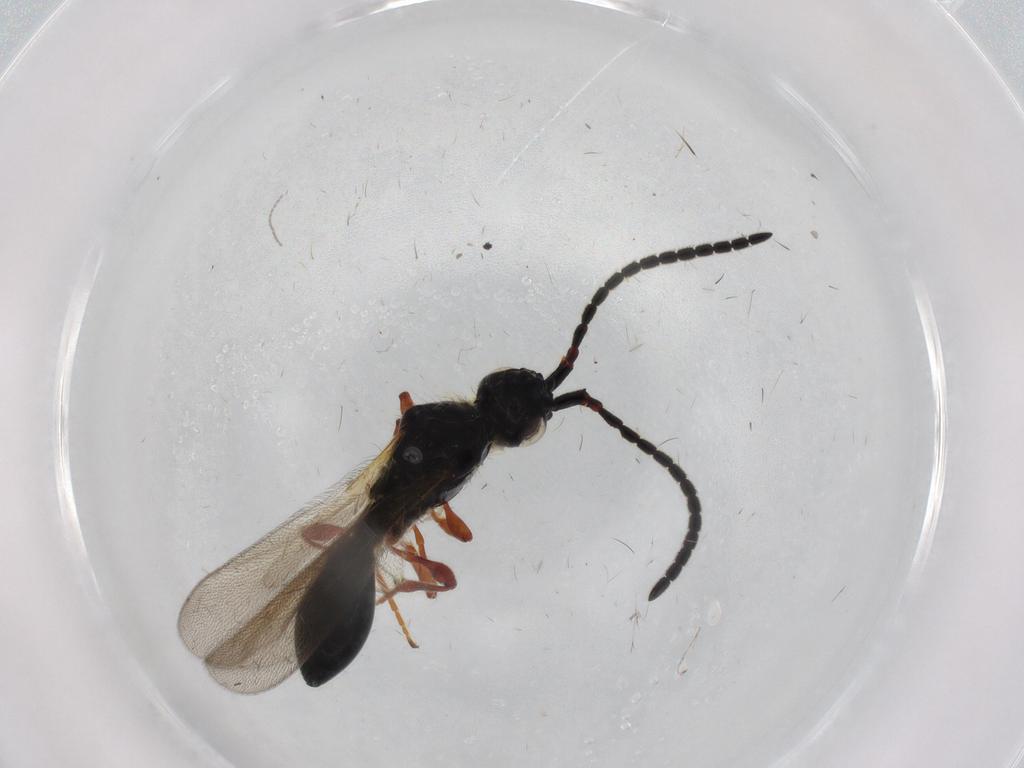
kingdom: Animalia
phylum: Arthropoda
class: Insecta
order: Hymenoptera
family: Diapriidae
